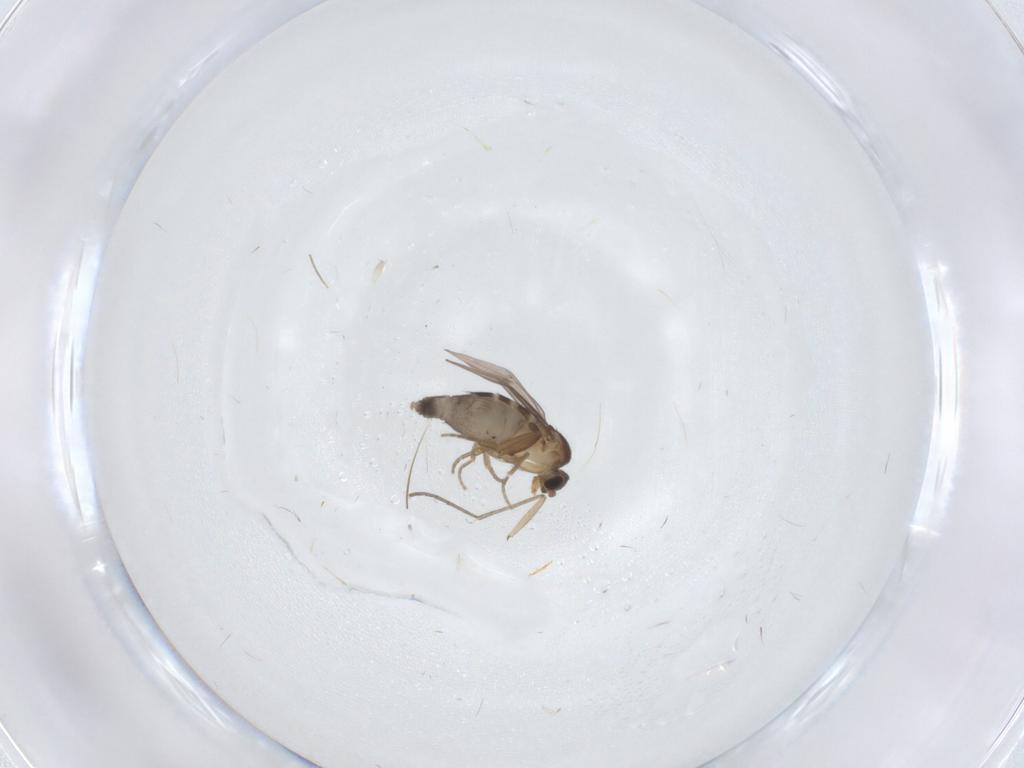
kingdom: Animalia
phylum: Arthropoda
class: Insecta
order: Diptera
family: Phoridae
